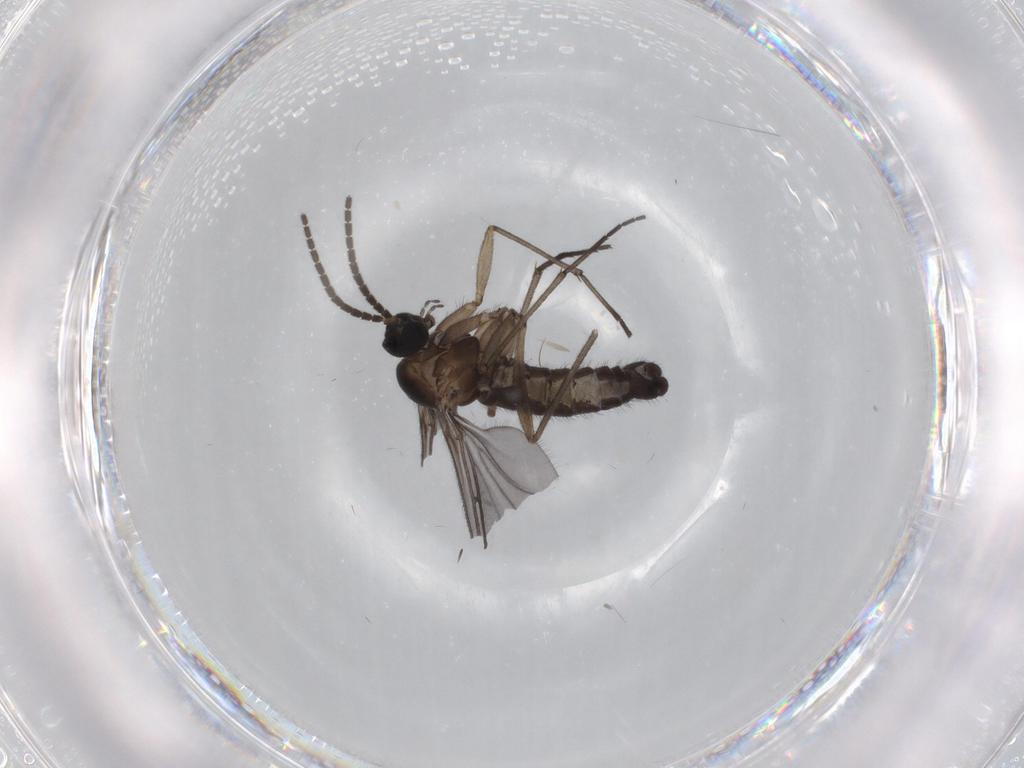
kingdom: Animalia
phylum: Arthropoda
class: Insecta
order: Diptera
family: Sciaridae
